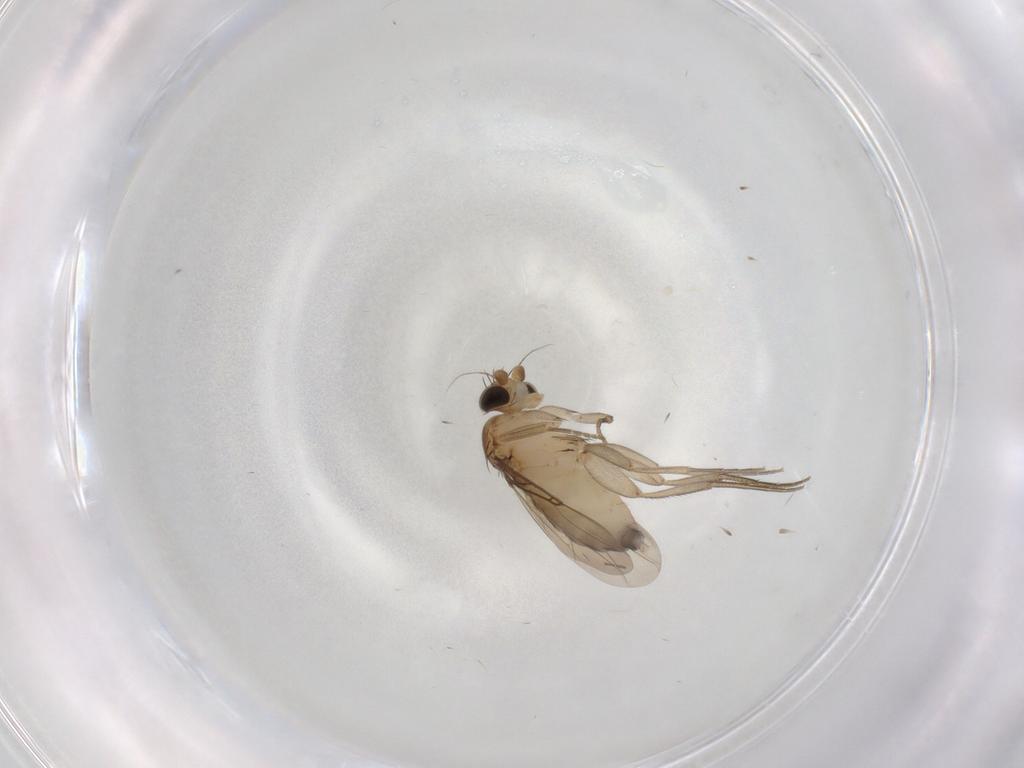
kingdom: Animalia
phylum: Arthropoda
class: Insecta
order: Diptera
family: Phoridae
